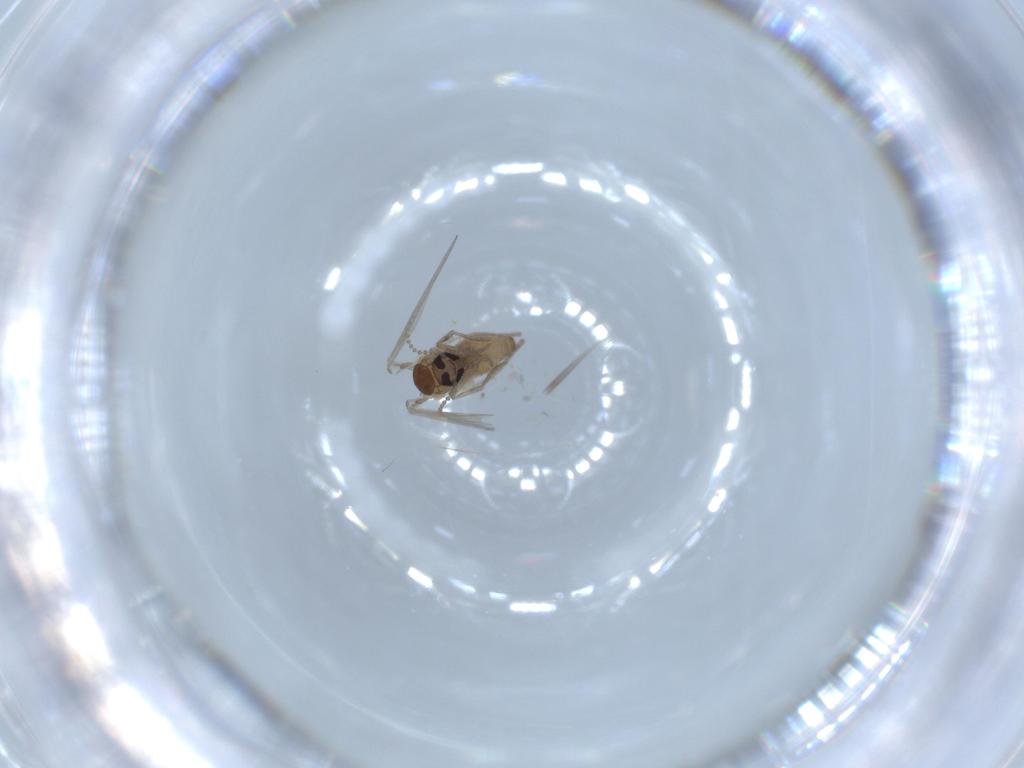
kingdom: Animalia
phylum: Arthropoda
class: Insecta
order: Diptera
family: Psychodidae
